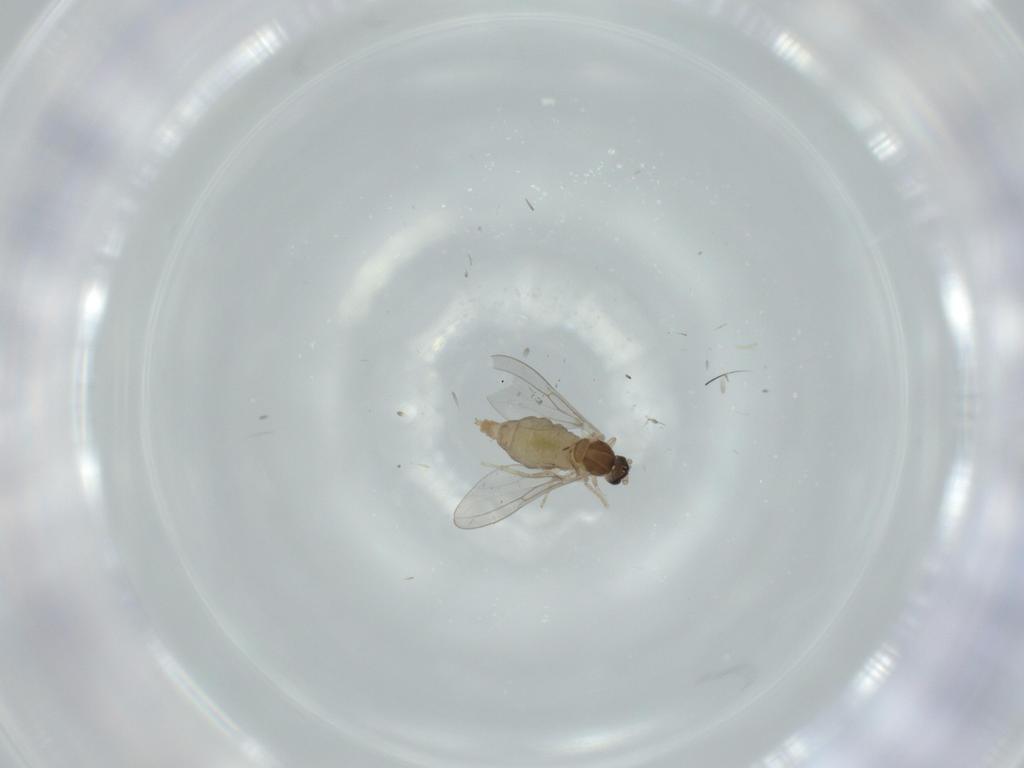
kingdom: Animalia
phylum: Arthropoda
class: Insecta
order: Diptera
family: Cecidomyiidae
